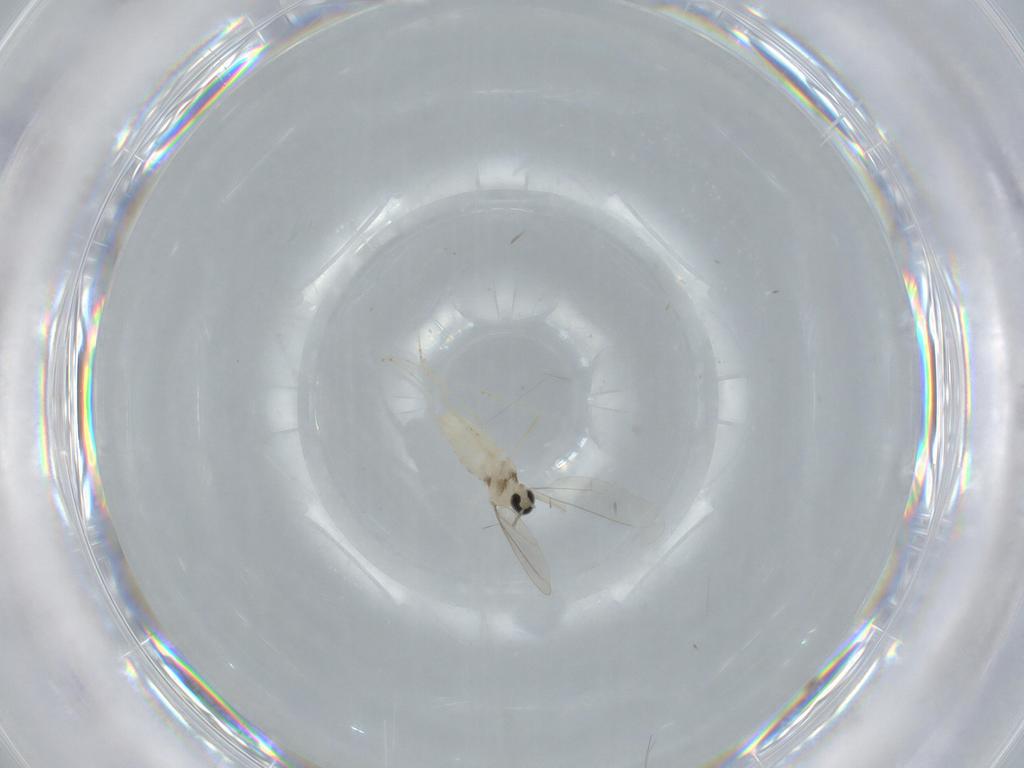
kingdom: Animalia
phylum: Arthropoda
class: Insecta
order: Diptera
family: Cecidomyiidae
